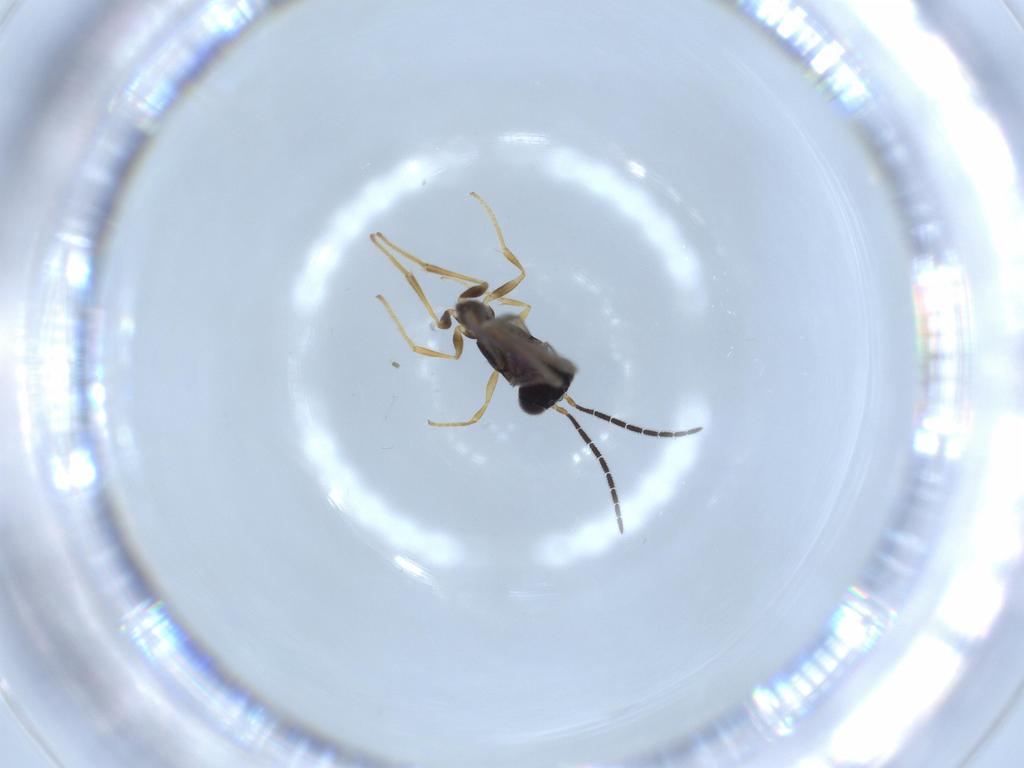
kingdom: Animalia
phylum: Arthropoda
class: Insecta
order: Hymenoptera
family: Dryinidae
